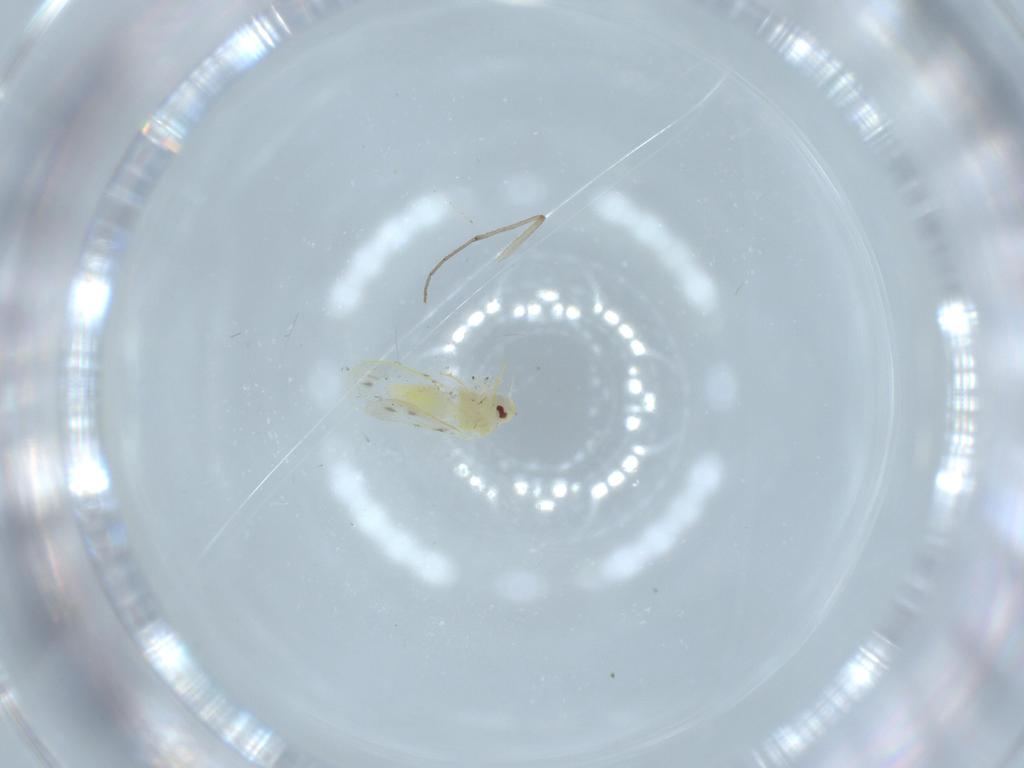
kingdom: Animalia
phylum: Arthropoda
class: Insecta
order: Hemiptera
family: Aleyrodidae
